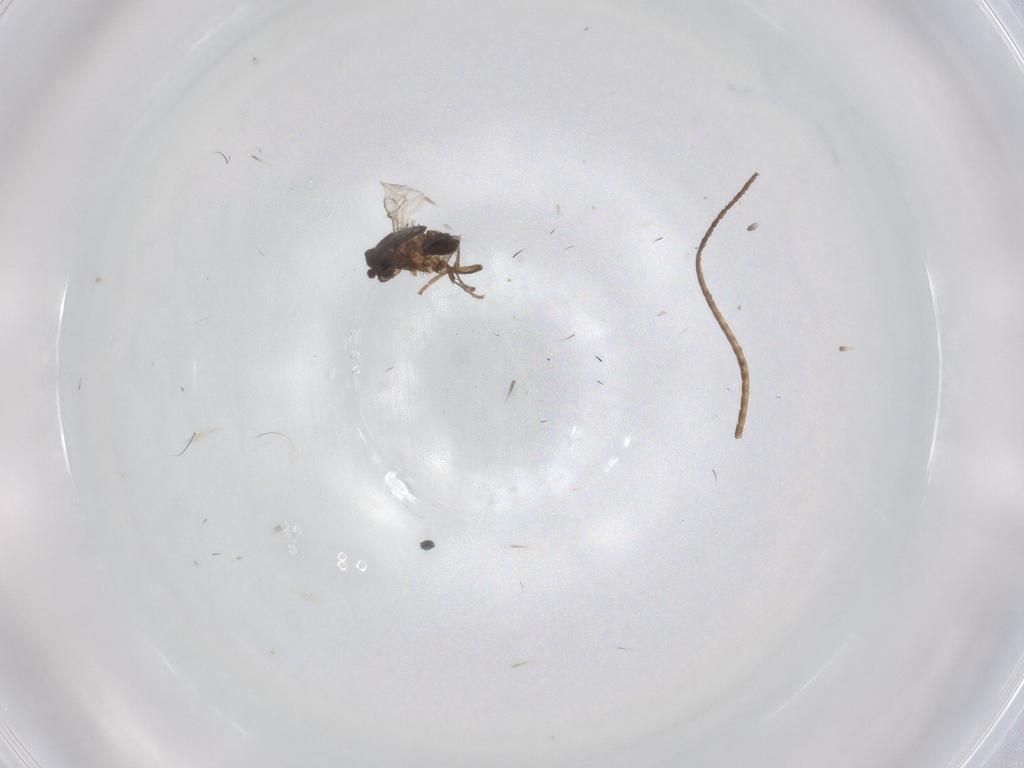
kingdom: Animalia
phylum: Arthropoda
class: Insecta
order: Diptera
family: Sphaeroceridae
